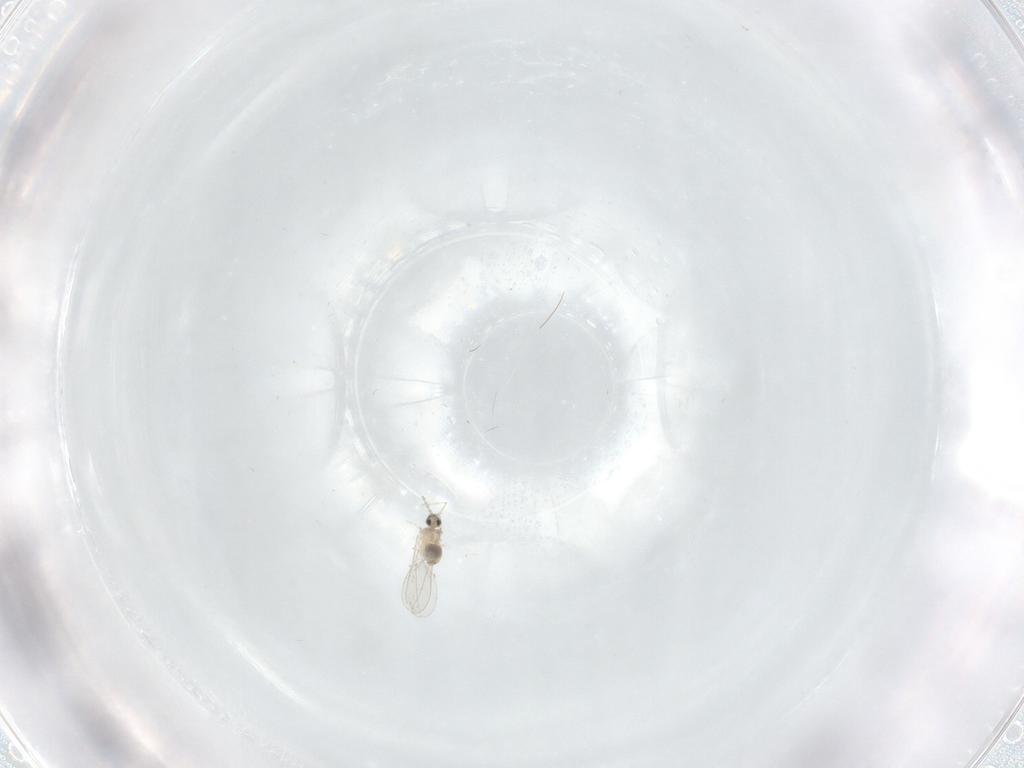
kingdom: Animalia
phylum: Arthropoda
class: Insecta
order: Diptera
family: Cecidomyiidae
